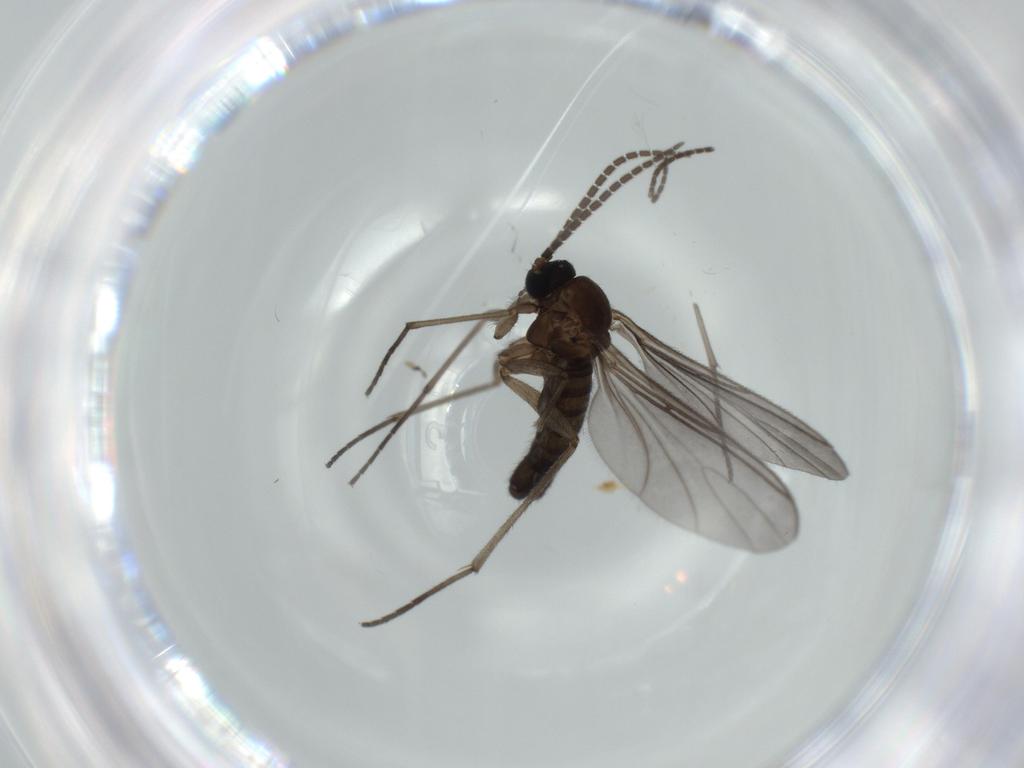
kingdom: Animalia
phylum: Arthropoda
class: Insecta
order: Diptera
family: Sciaridae
